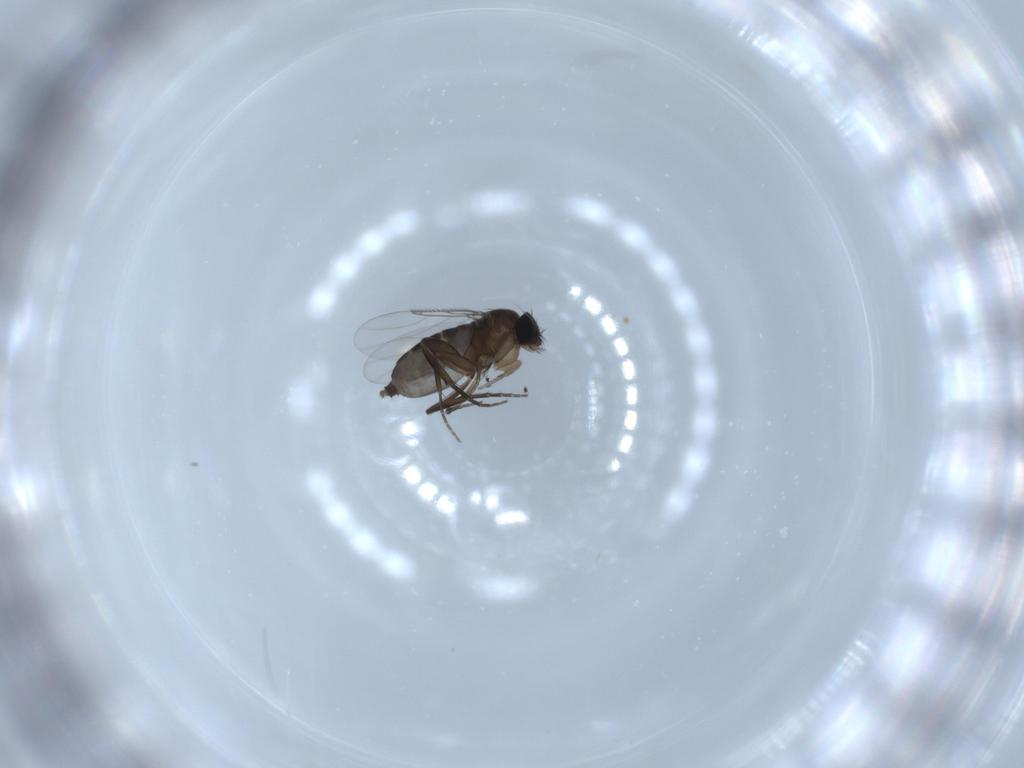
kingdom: Animalia
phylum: Arthropoda
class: Insecta
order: Diptera
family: Phoridae
